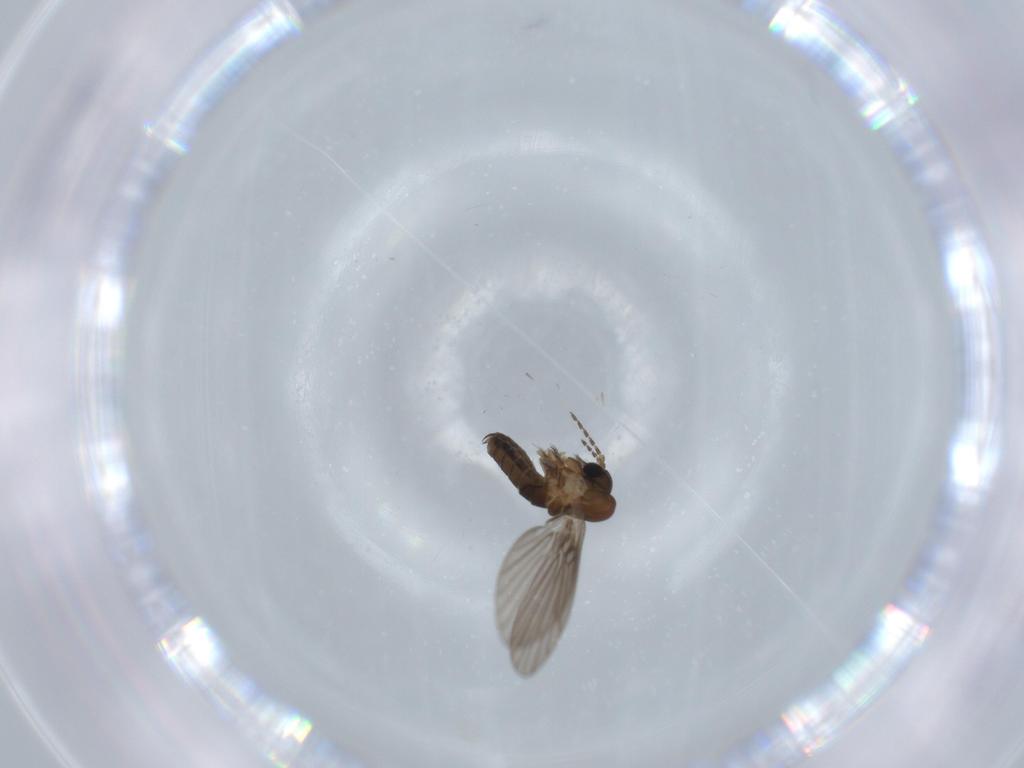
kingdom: Animalia
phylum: Arthropoda
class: Insecta
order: Diptera
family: Psychodidae
